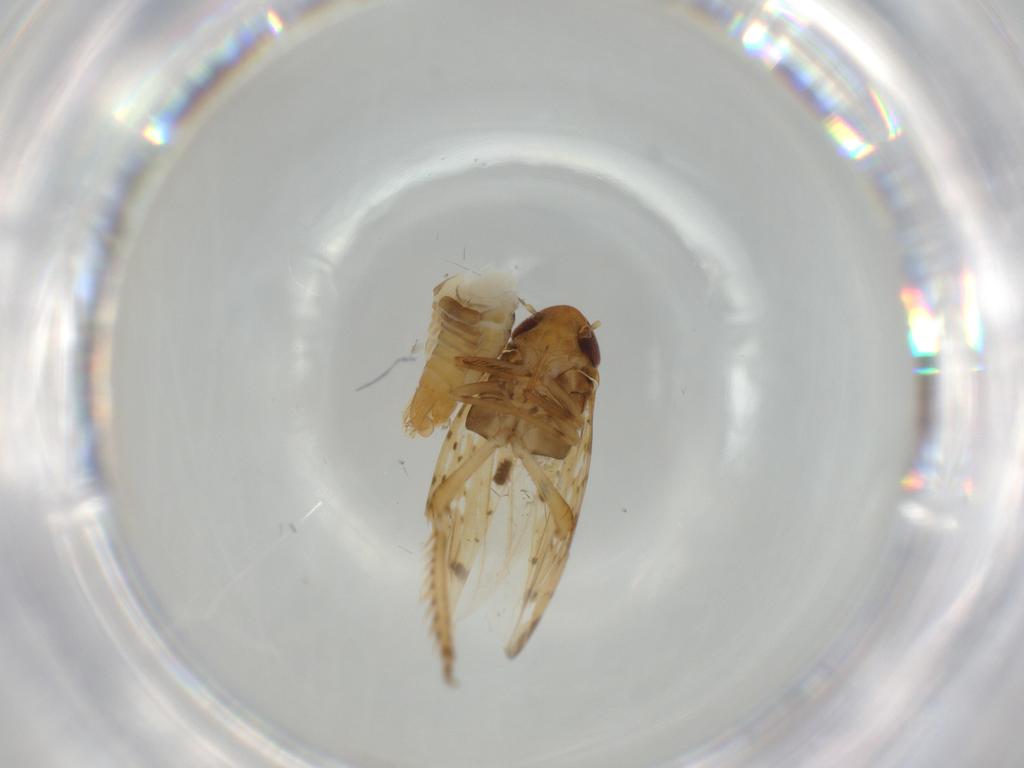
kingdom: Animalia
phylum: Arthropoda
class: Insecta
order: Hemiptera
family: Cicadellidae
